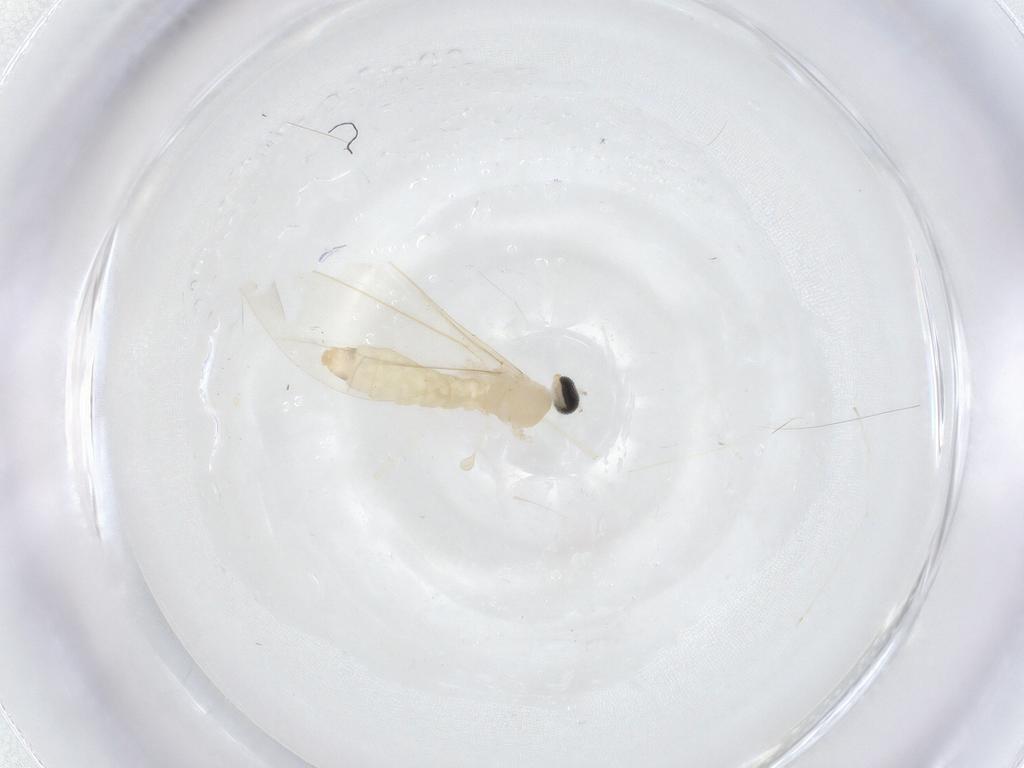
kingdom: Animalia
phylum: Arthropoda
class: Insecta
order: Diptera
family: Cecidomyiidae
